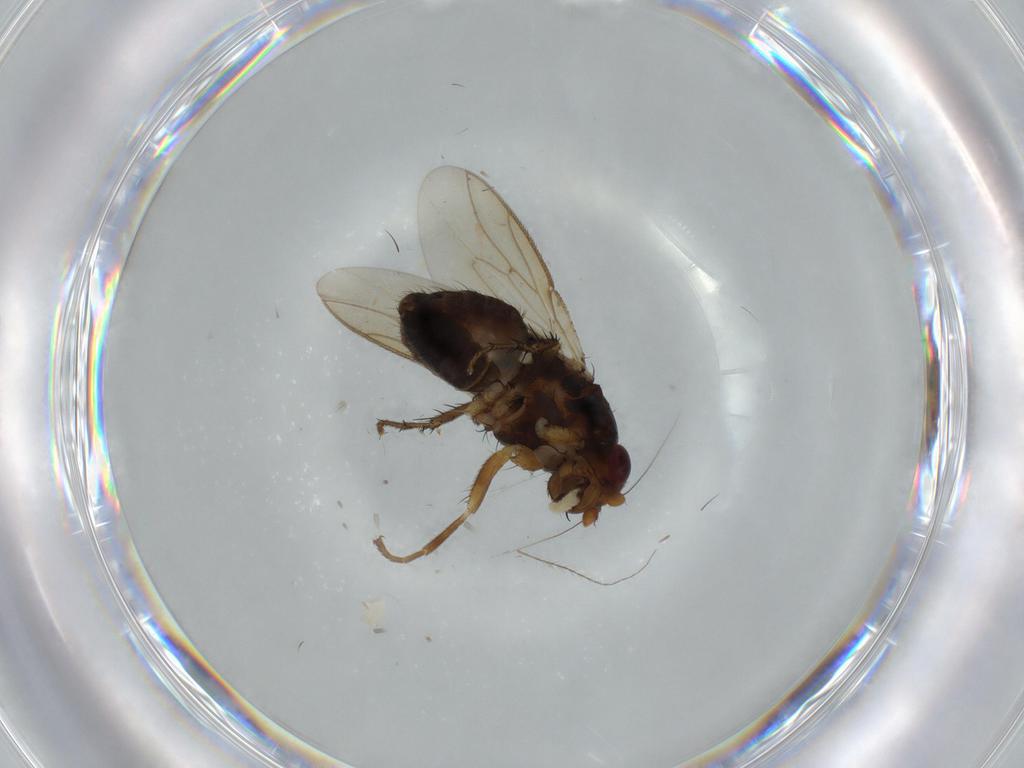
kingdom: Animalia
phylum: Arthropoda
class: Insecta
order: Diptera
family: Sphaeroceridae
